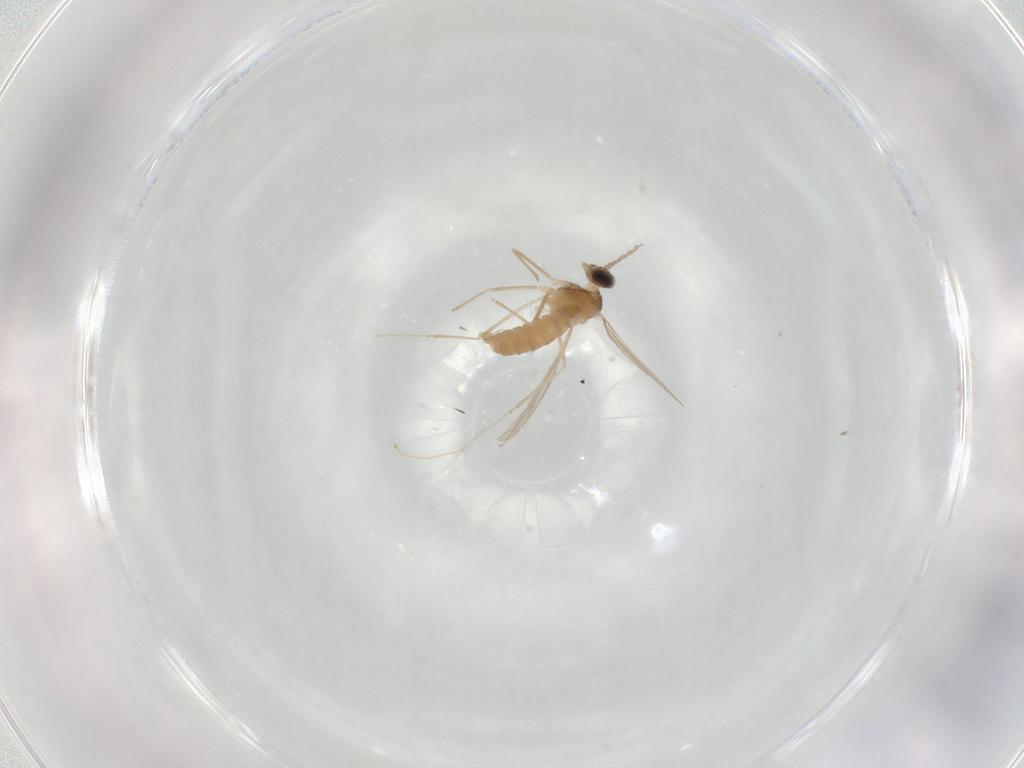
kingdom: Animalia
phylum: Arthropoda
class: Insecta
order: Diptera
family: Cecidomyiidae
